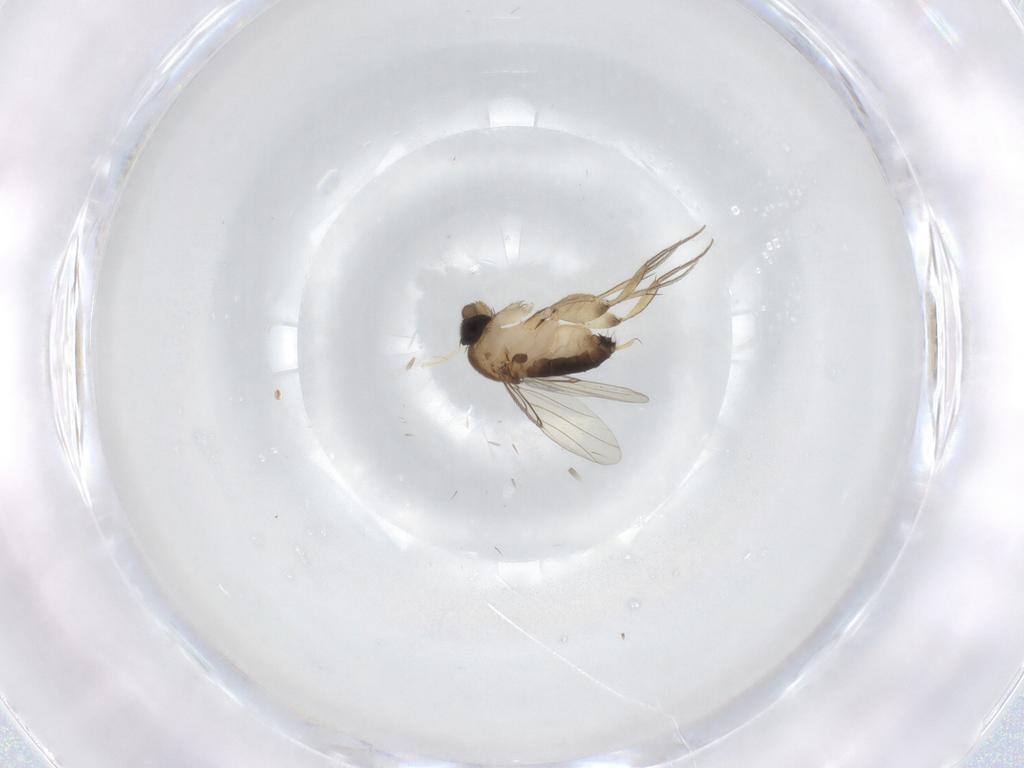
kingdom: Animalia
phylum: Arthropoda
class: Insecta
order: Diptera
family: Phoridae
